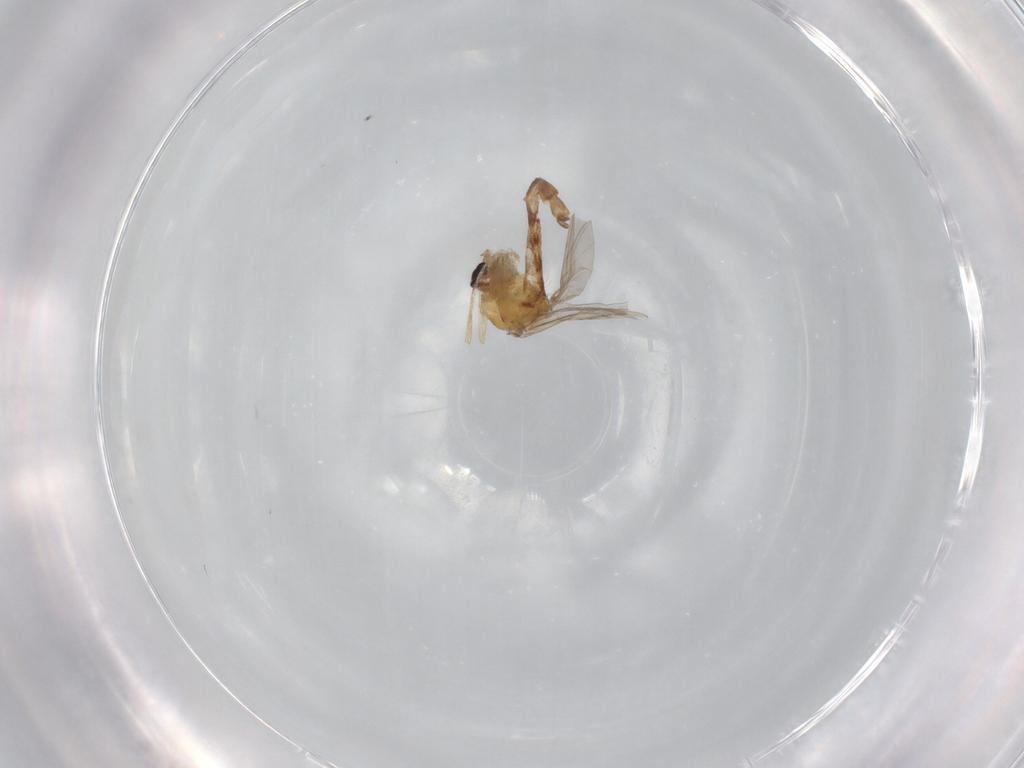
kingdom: Animalia
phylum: Arthropoda
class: Insecta
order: Diptera
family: Chironomidae
